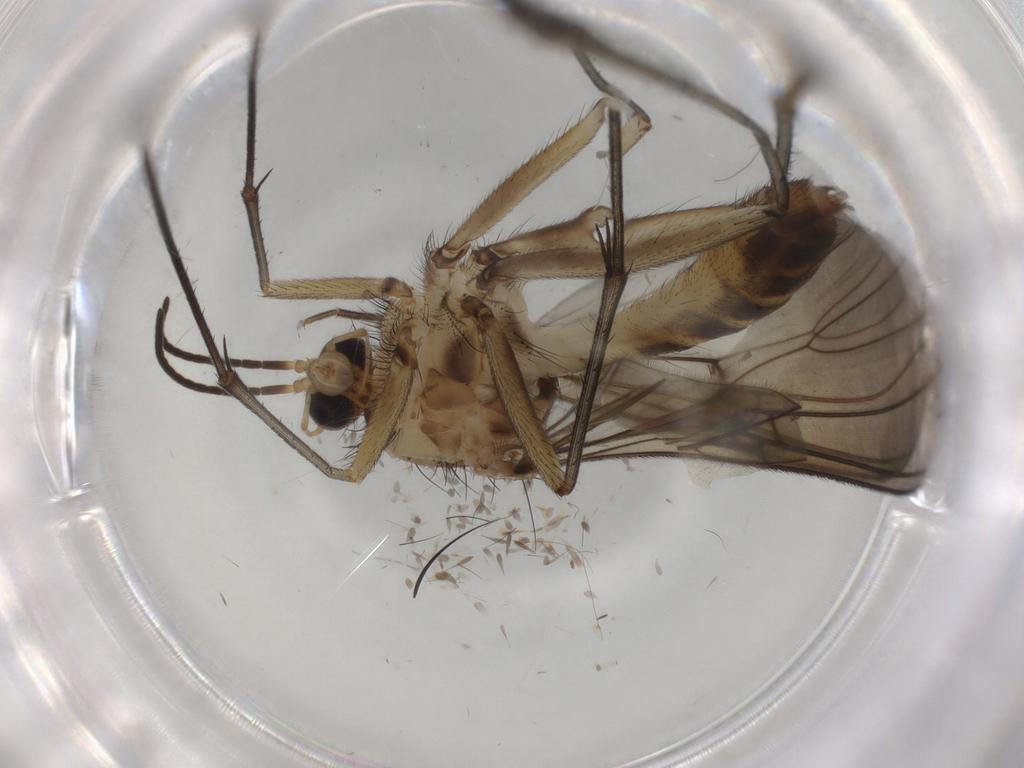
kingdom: Animalia
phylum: Arthropoda
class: Insecta
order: Diptera
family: Mycetophilidae
